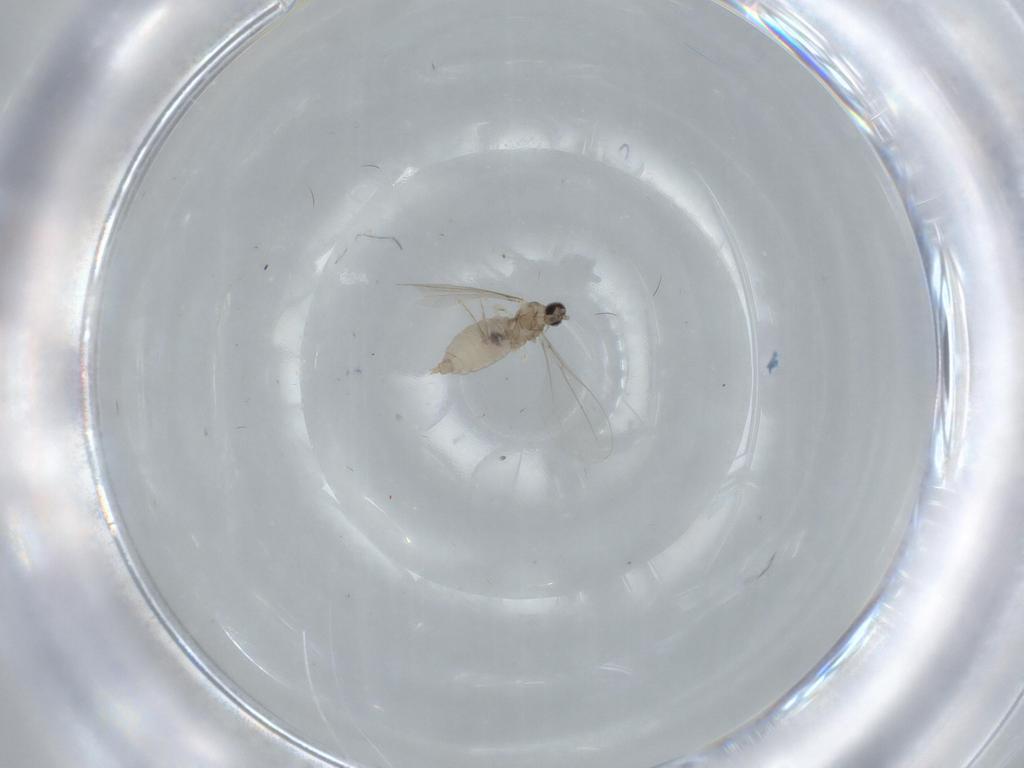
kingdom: Animalia
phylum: Arthropoda
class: Insecta
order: Diptera
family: Cecidomyiidae
